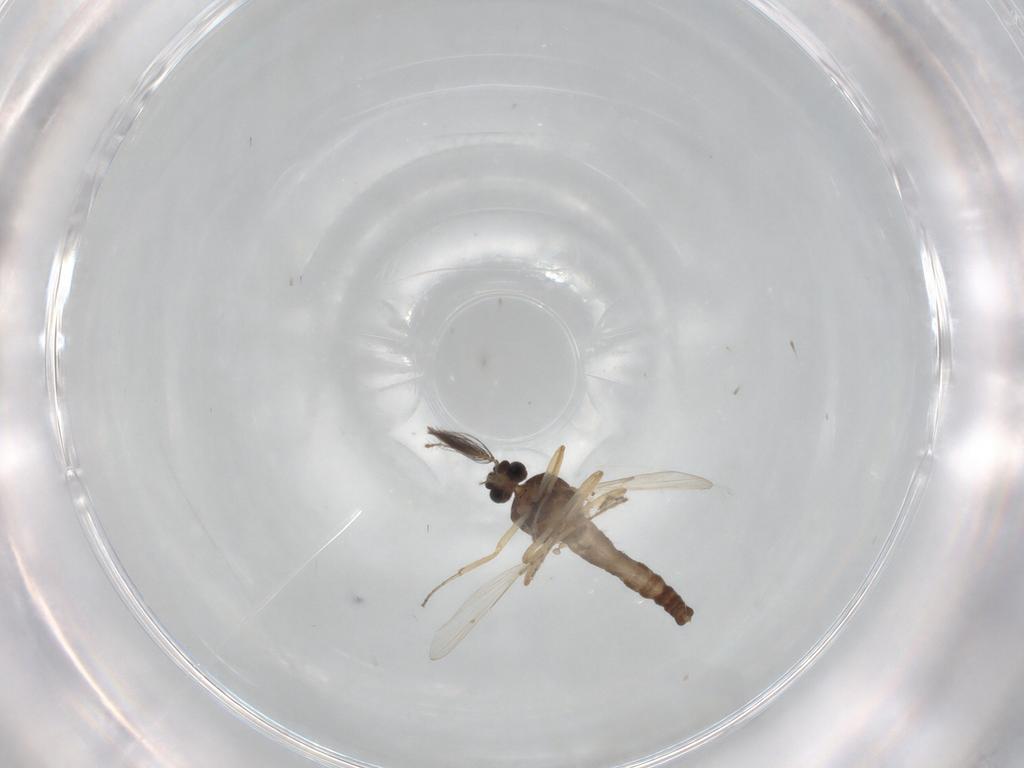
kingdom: Animalia
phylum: Arthropoda
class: Insecta
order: Diptera
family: Ceratopogonidae
